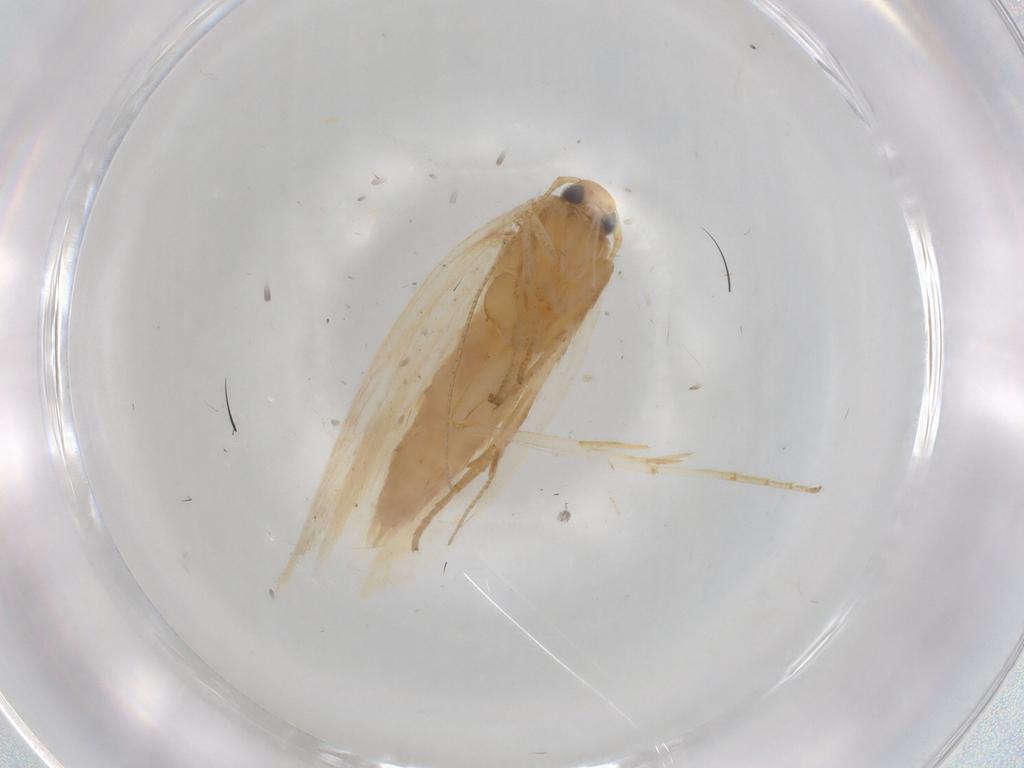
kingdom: Animalia
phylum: Arthropoda
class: Insecta
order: Lepidoptera
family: Gelechiidae
